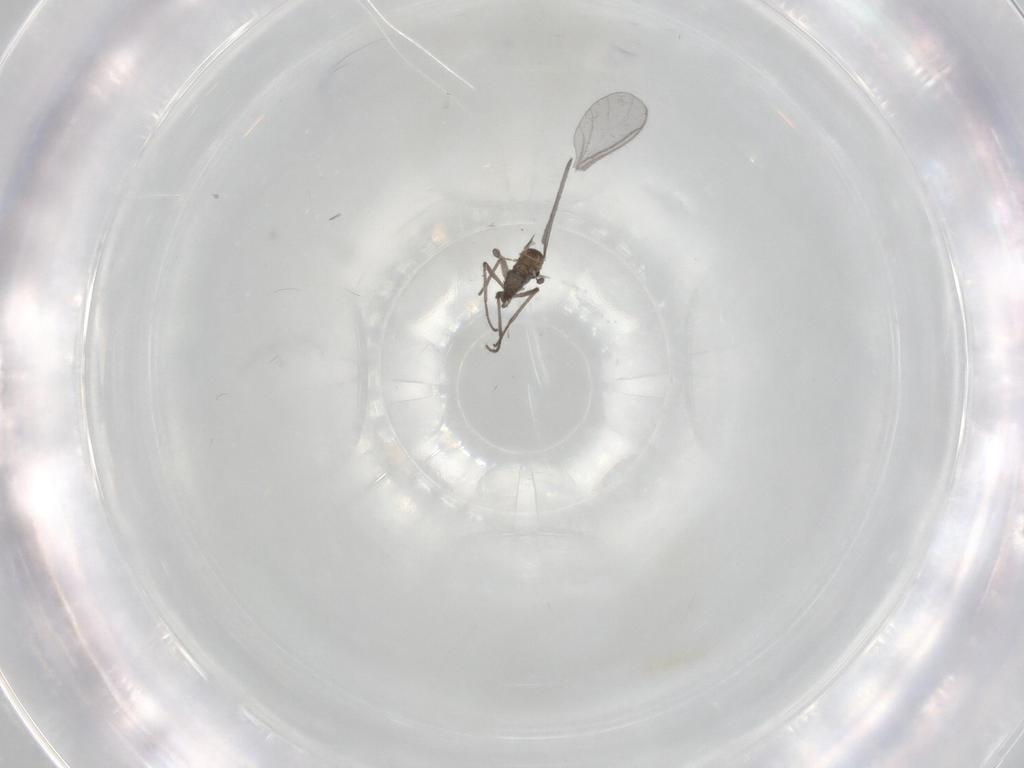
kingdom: Animalia
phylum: Arthropoda
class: Insecta
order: Diptera
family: Sciaridae
